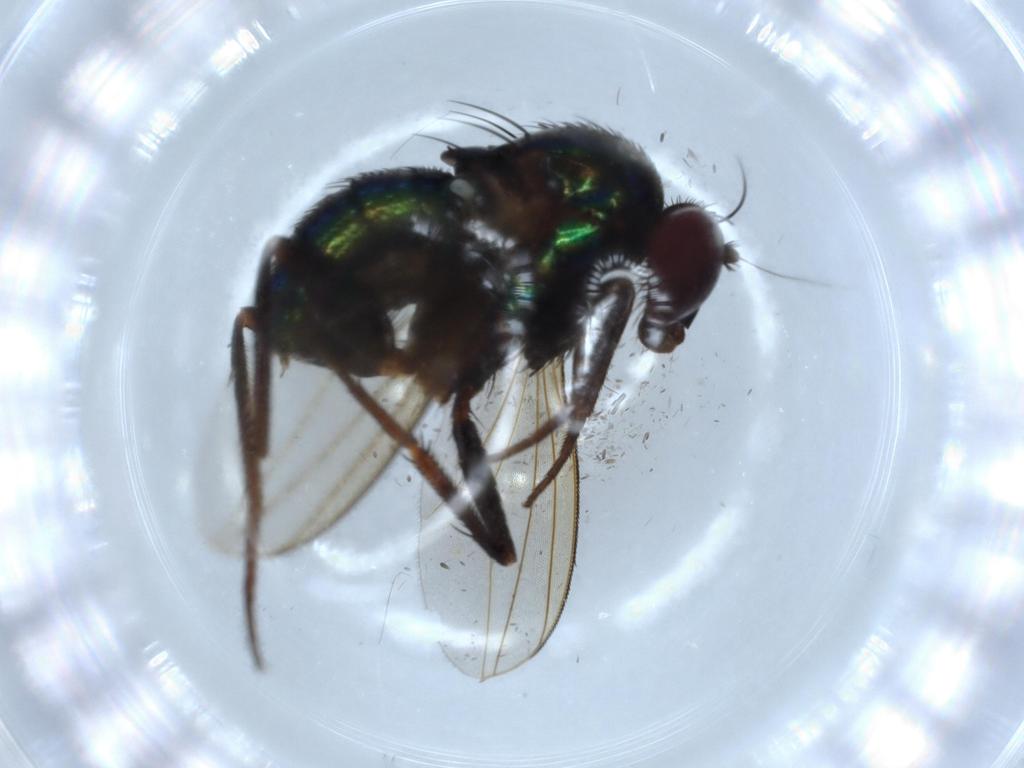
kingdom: Animalia
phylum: Arthropoda
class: Insecta
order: Diptera
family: Dolichopodidae
